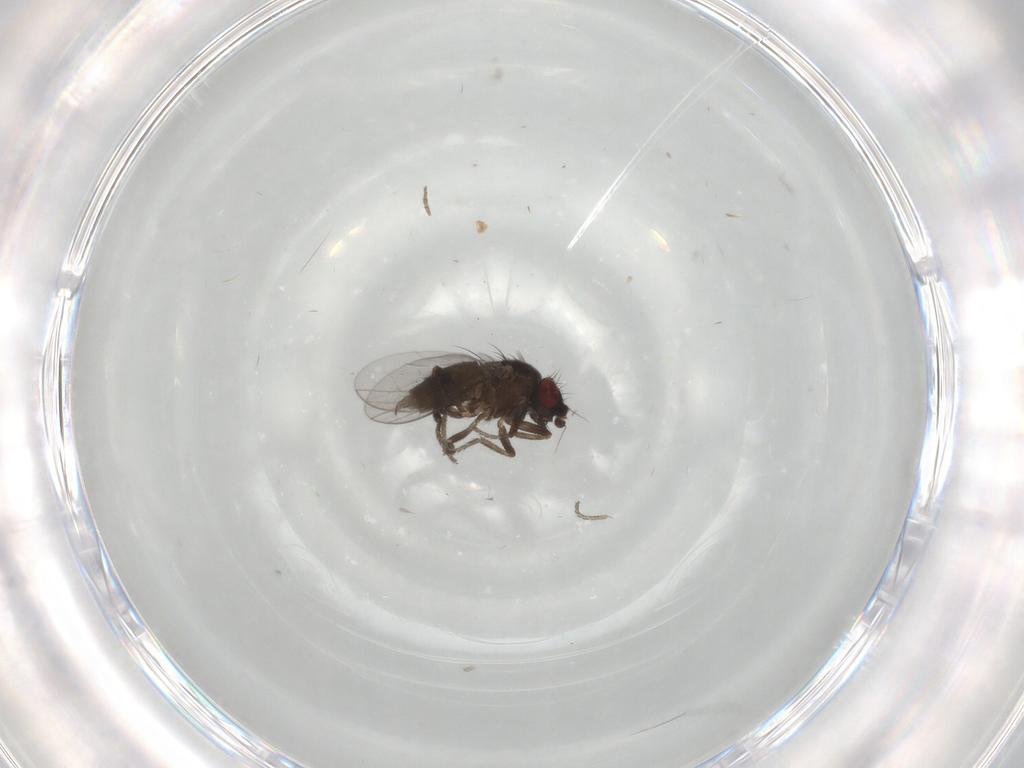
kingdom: Animalia
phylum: Arthropoda
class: Insecta
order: Diptera
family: Milichiidae
